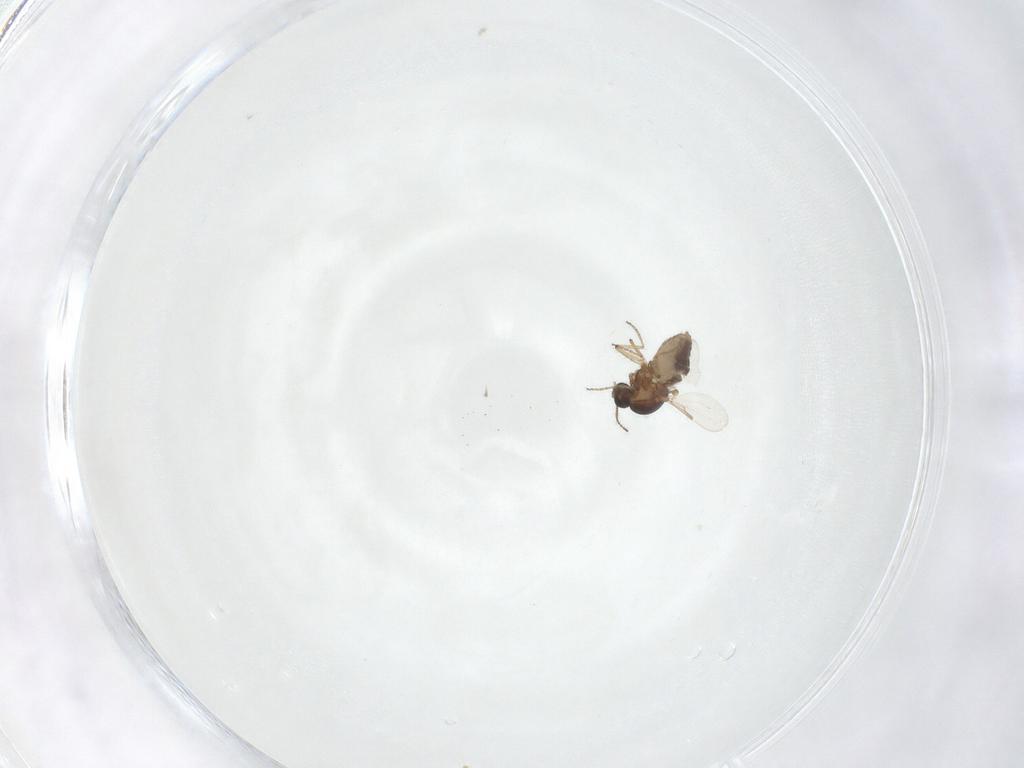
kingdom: Animalia
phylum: Arthropoda
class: Insecta
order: Diptera
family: Ceratopogonidae
